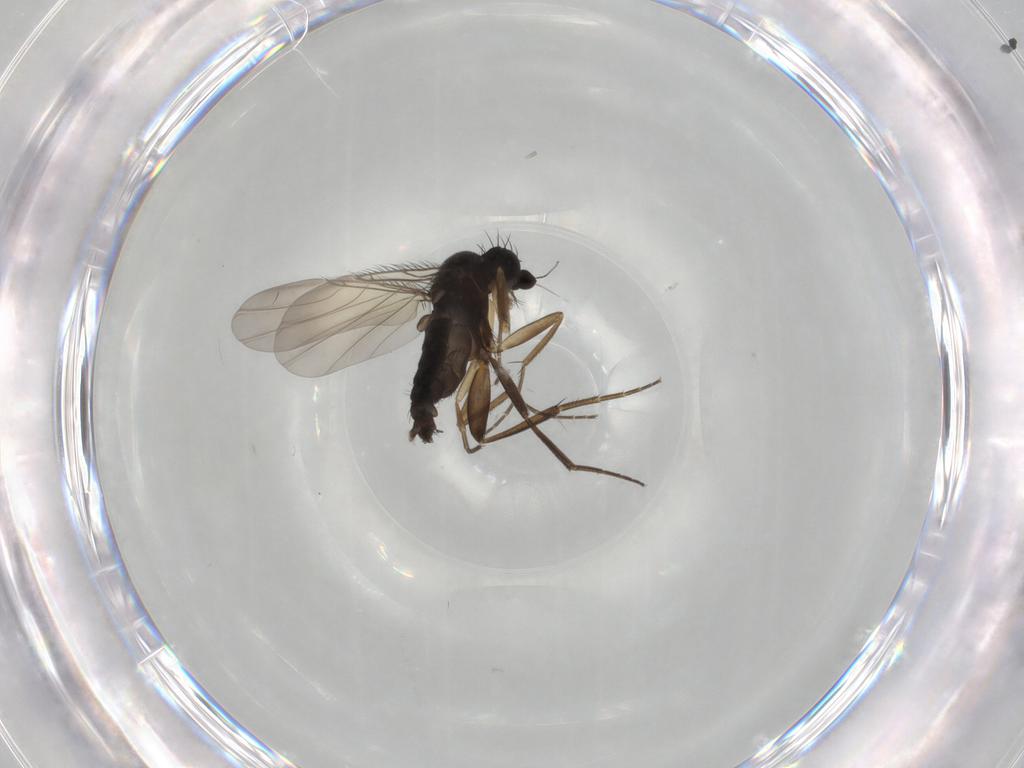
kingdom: Animalia
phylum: Arthropoda
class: Insecta
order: Diptera
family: Phoridae
